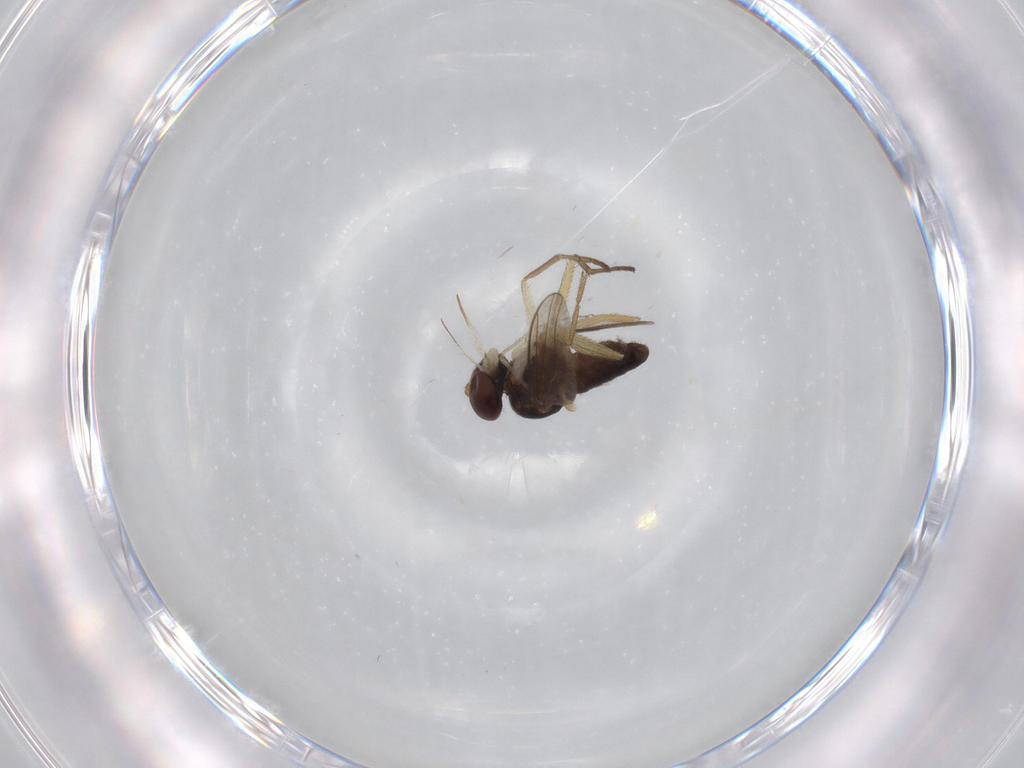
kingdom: Animalia
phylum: Arthropoda
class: Insecta
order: Diptera
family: Dolichopodidae
